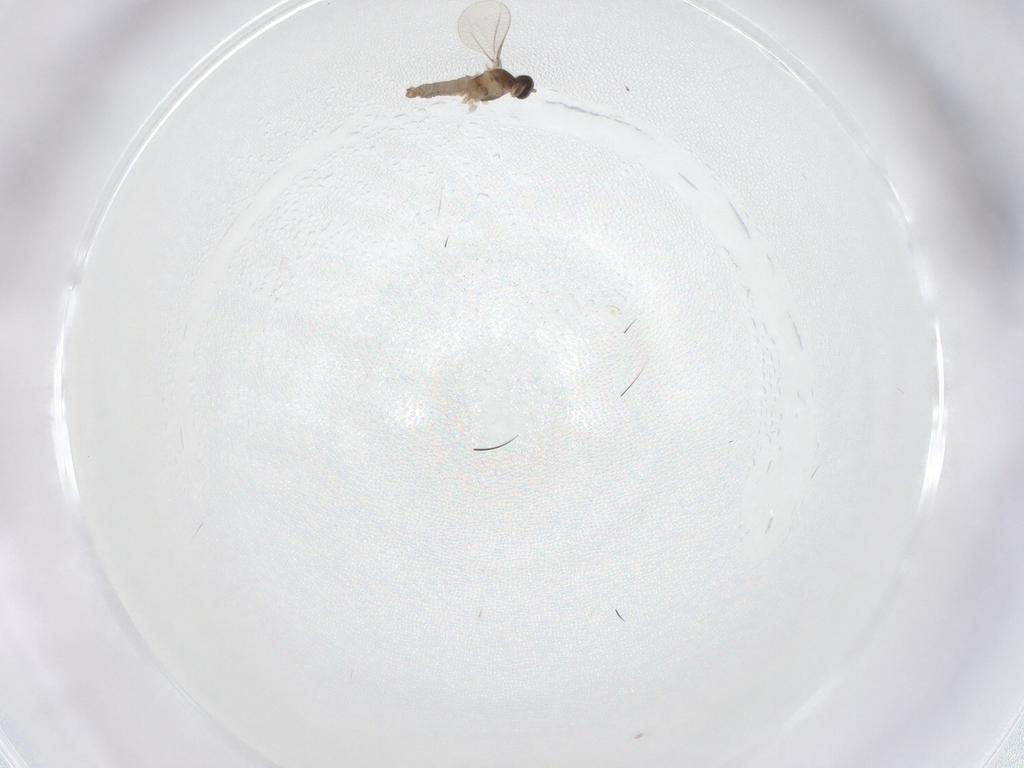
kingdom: Animalia
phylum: Arthropoda
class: Insecta
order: Diptera
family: Cecidomyiidae
